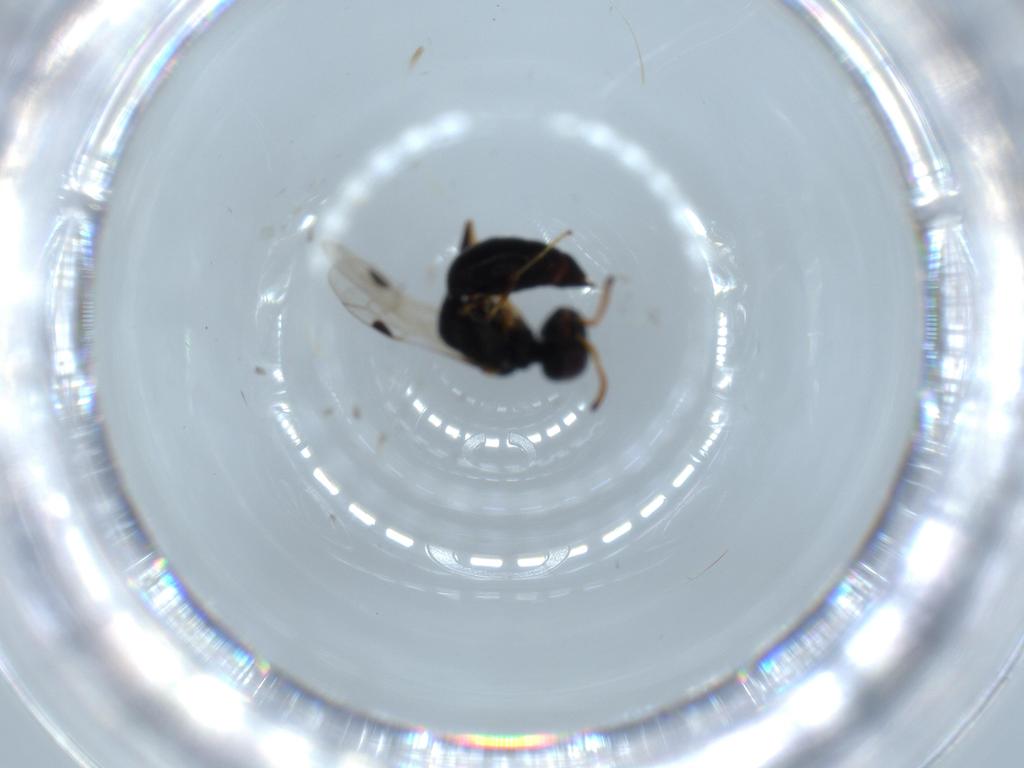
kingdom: Animalia
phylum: Arthropoda
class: Insecta
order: Hymenoptera
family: Pemphredonidae
